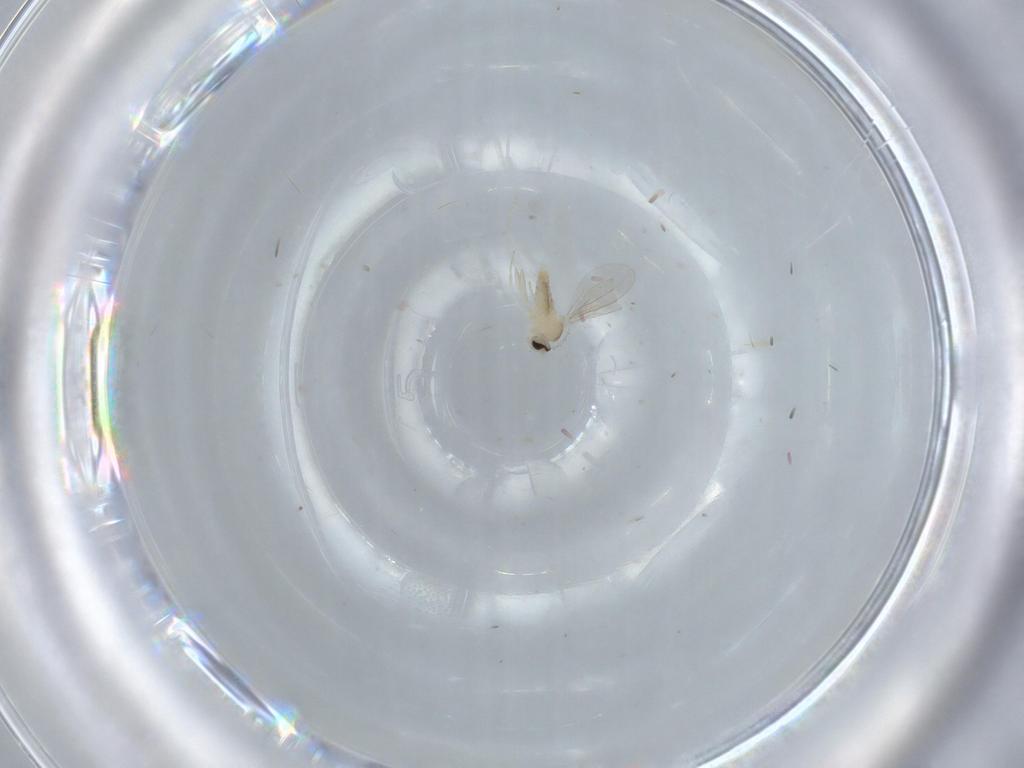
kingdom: Animalia
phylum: Arthropoda
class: Insecta
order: Diptera
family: Cecidomyiidae
